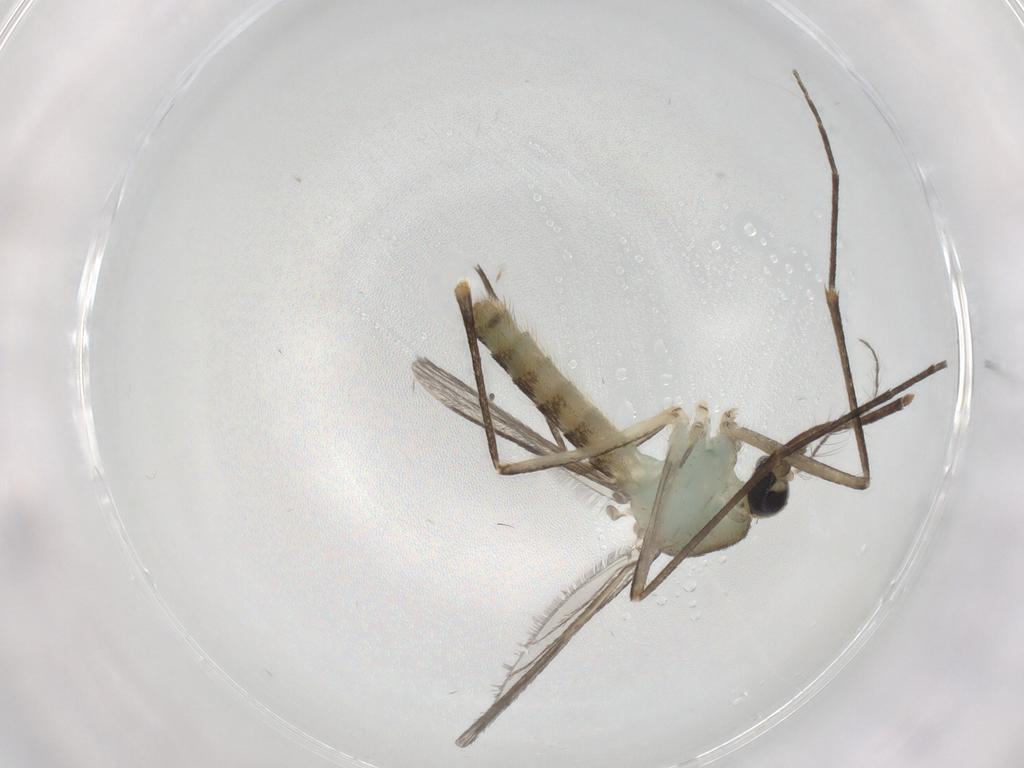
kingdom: Animalia
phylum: Arthropoda
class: Insecta
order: Diptera
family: Culicidae
